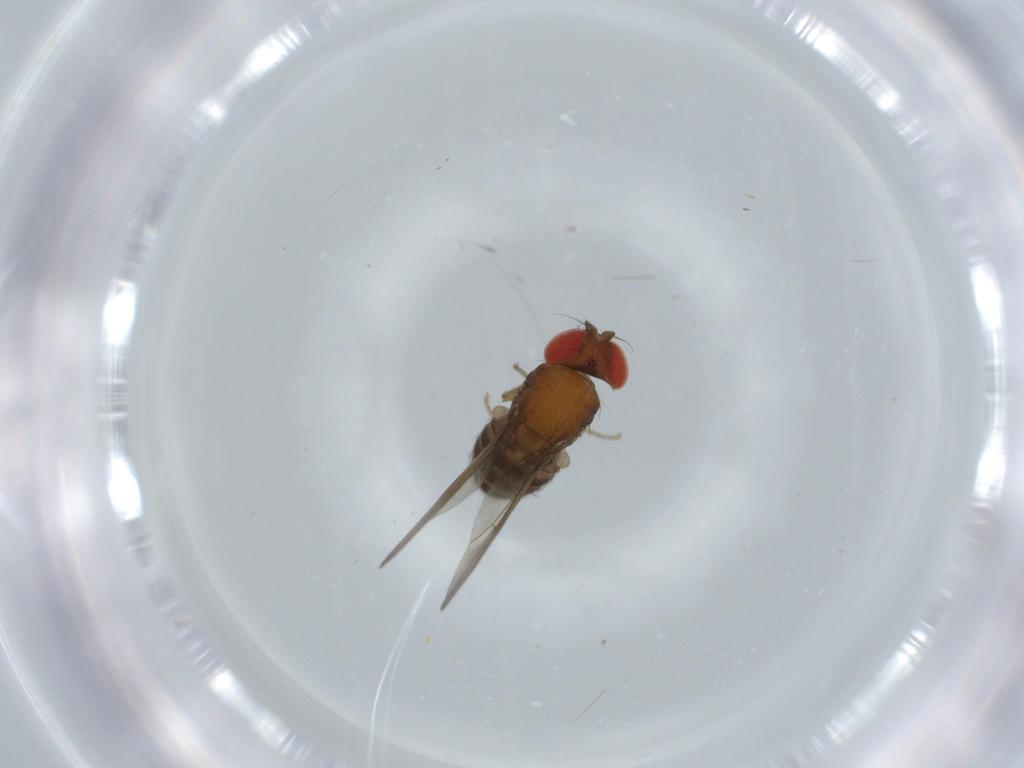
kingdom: Animalia
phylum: Arthropoda
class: Insecta
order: Diptera
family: Drosophilidae
